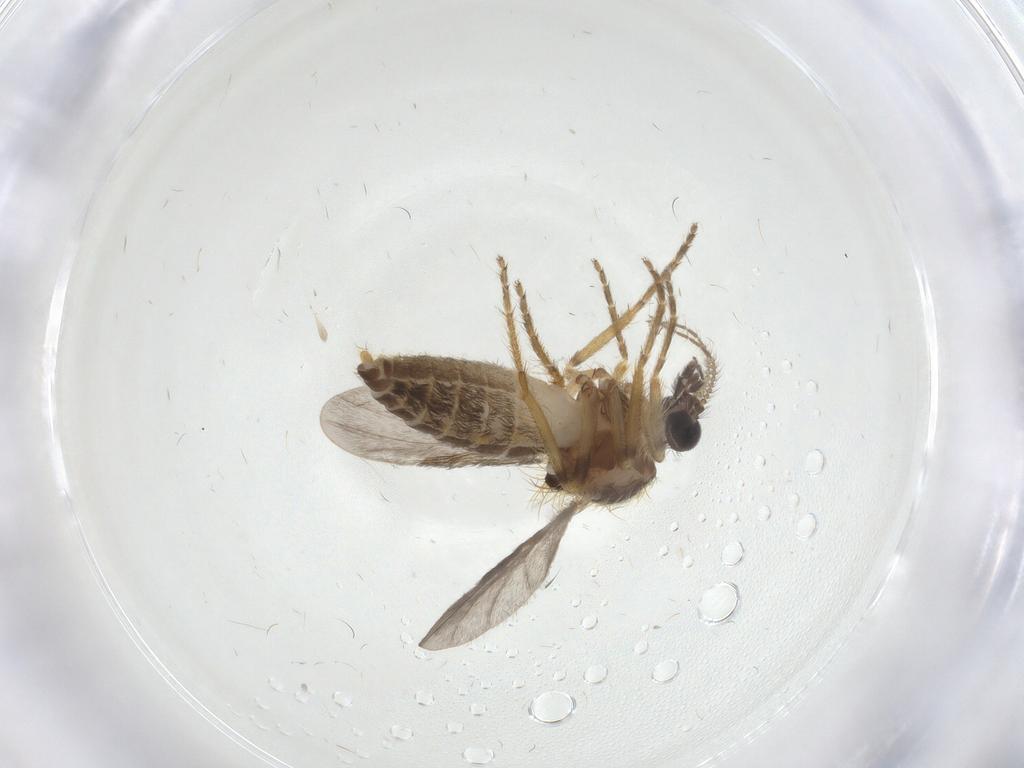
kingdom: Animalia
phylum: Arthropoda
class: Insecta
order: Diptera
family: Ceratopogonidae
